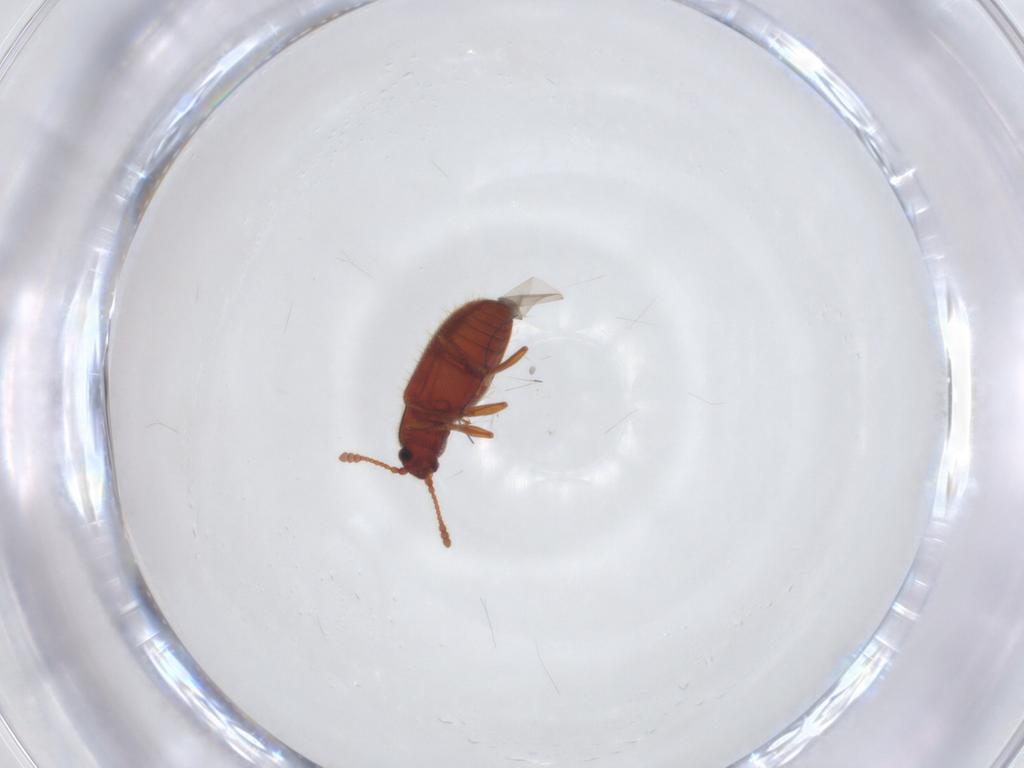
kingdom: Animalia
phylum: Arthropoda
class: Insecta
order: Coleoptera
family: Cryptophagidae
